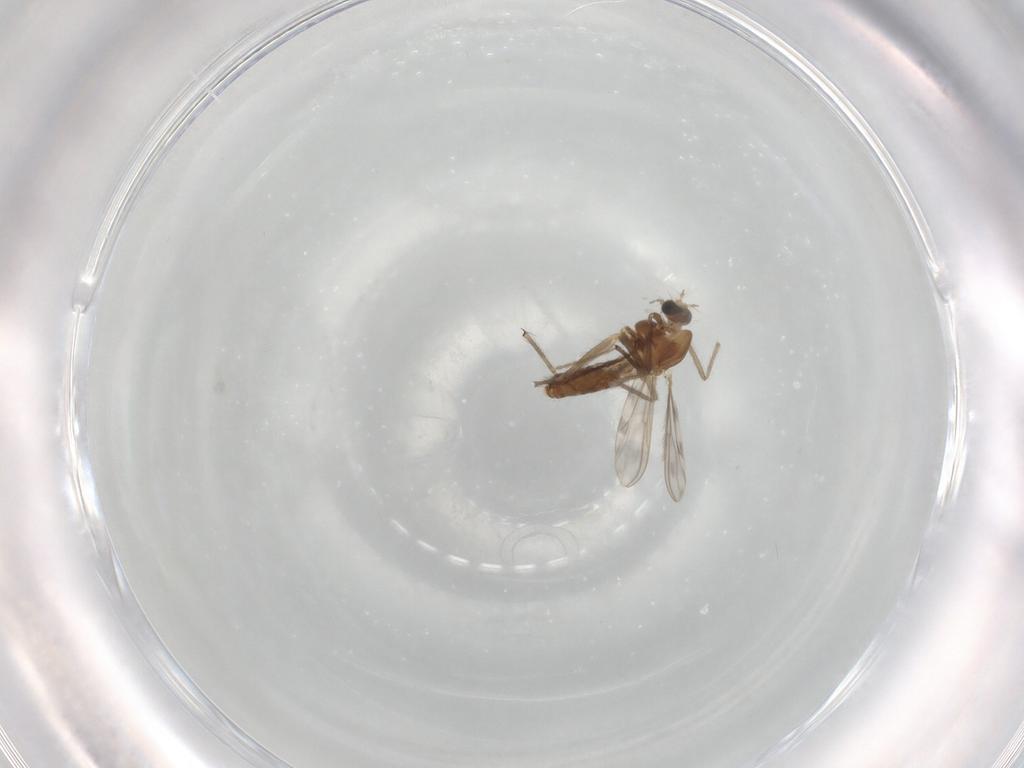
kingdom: Animalia
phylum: Arthropoda
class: Insecta
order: Diptera
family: Chironomidae
